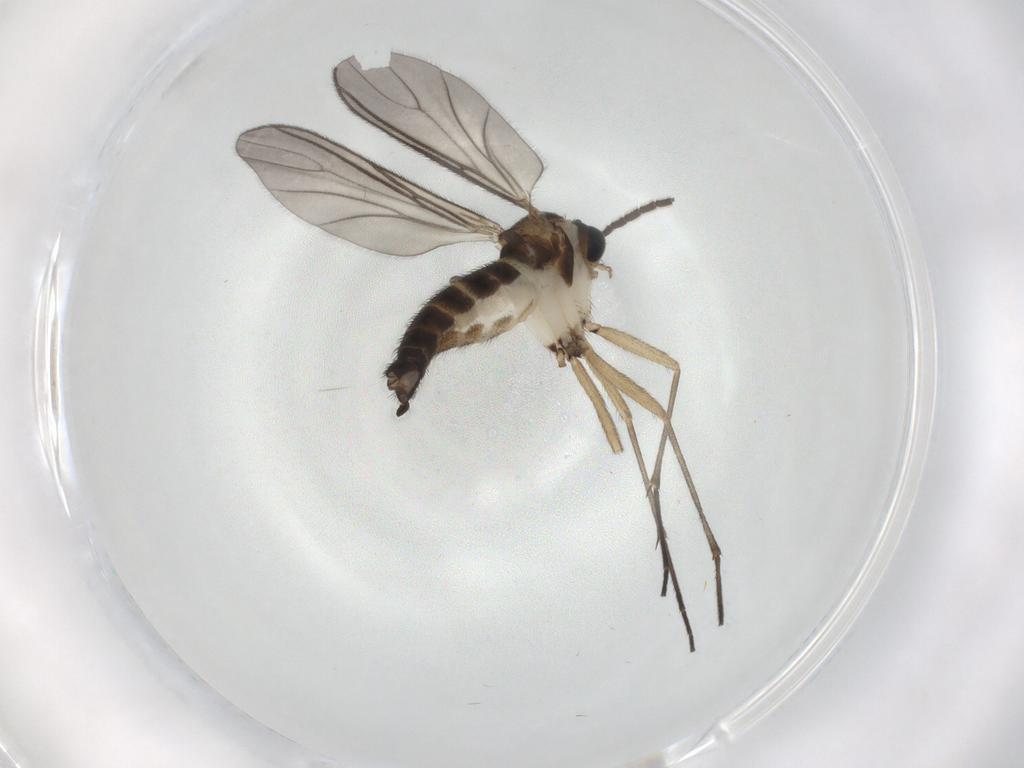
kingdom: Animalia
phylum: Arthropoda
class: Insecta
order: Diptera
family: Sciaridae
